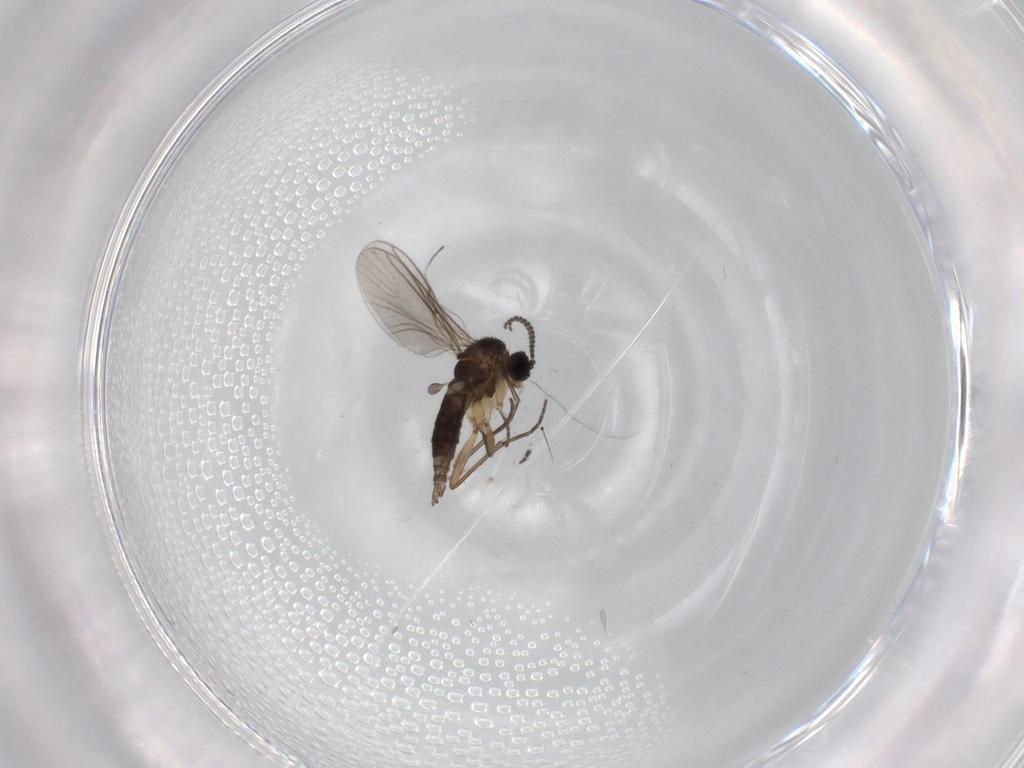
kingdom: Animalia
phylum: Arthropoda
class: Insecta
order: Diptera
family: Sciaridae
